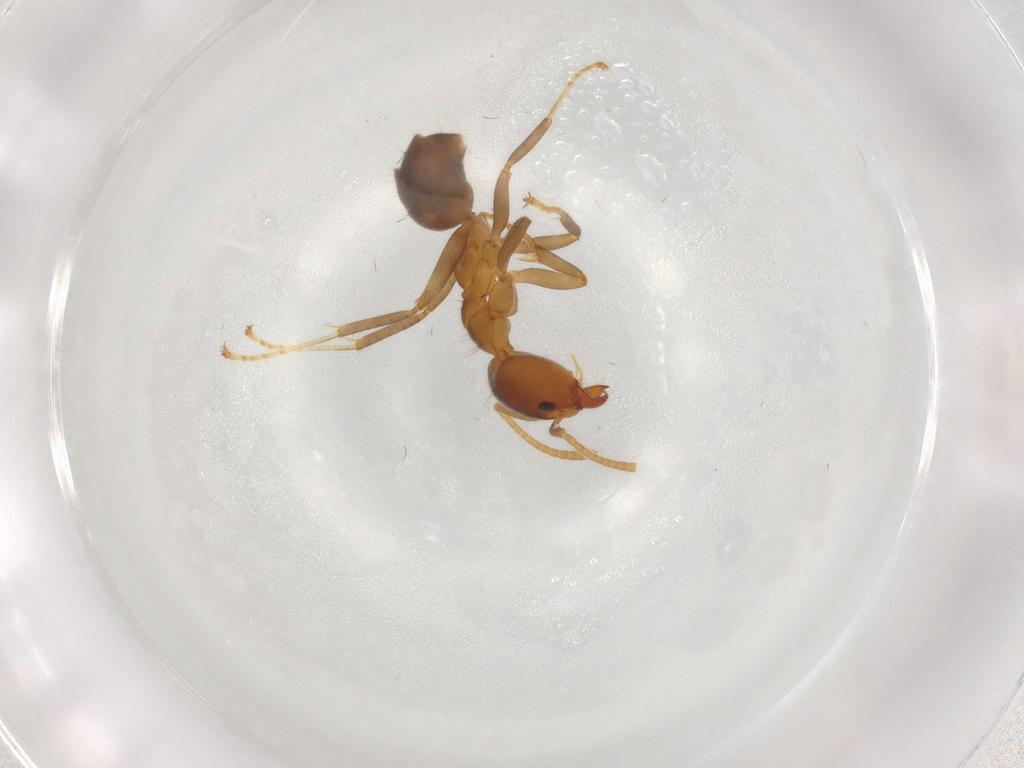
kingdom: Animalia
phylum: Arthropoda
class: Insecta
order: Hymenoptera
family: Formicidae
